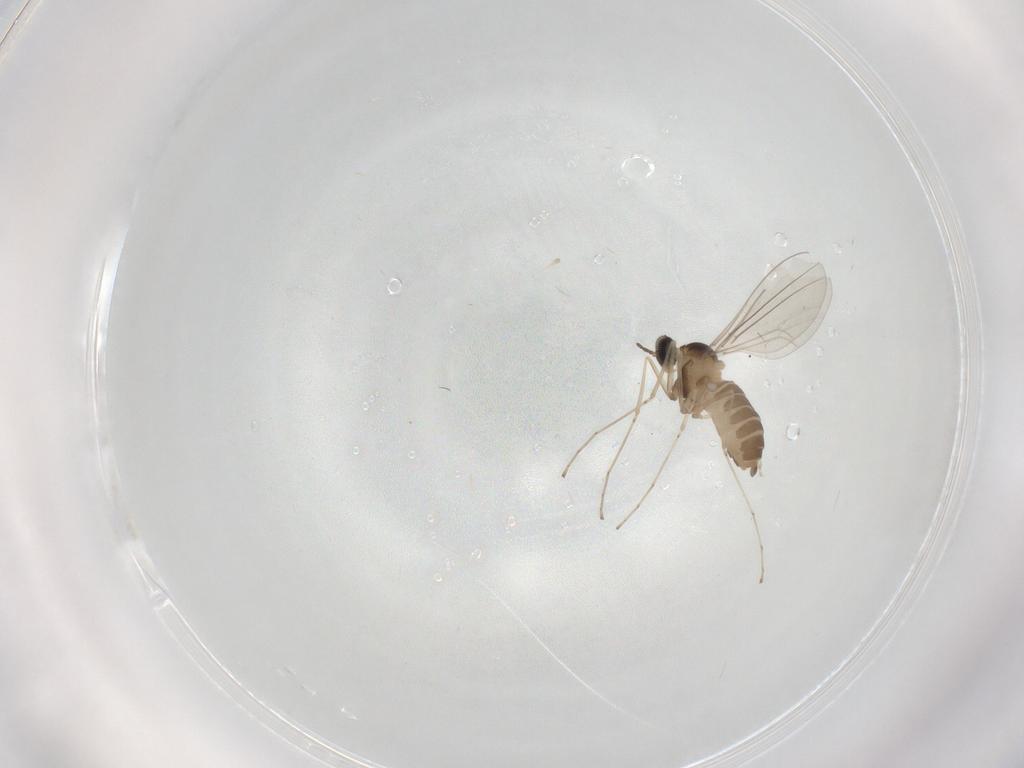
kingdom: Animalia
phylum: Arthropoda
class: Insecta
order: Diptera
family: Cecidomyiidae
